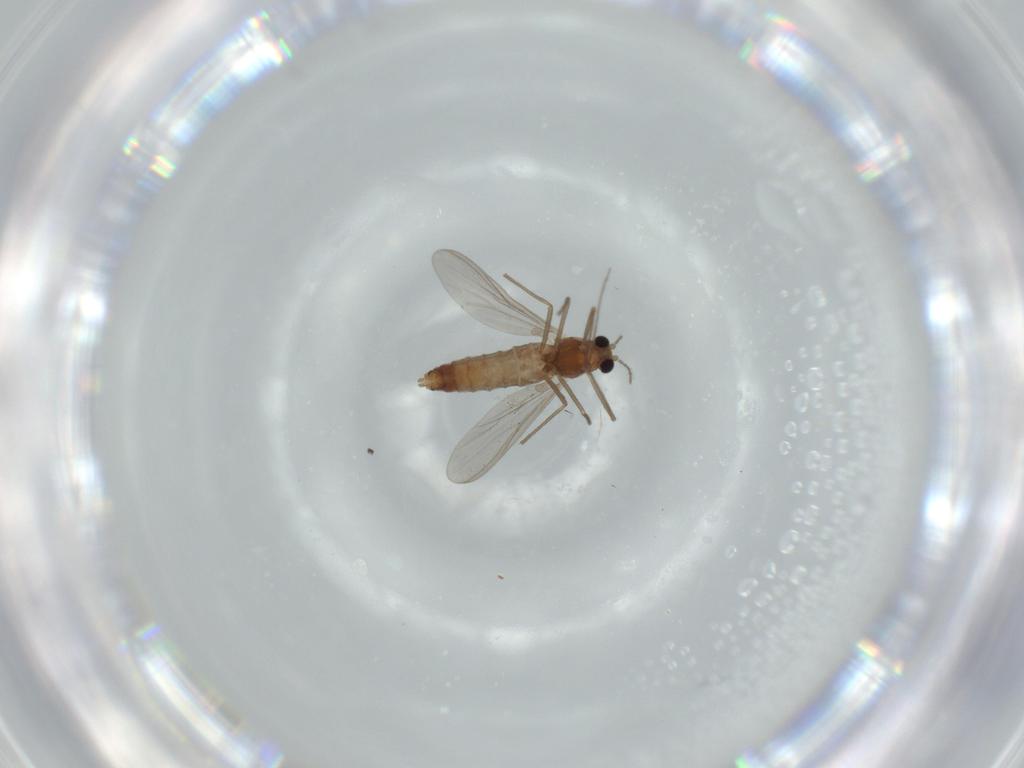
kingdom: Animalia
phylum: Arthropoda
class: Insecta
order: Diptera
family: Chironomidae
